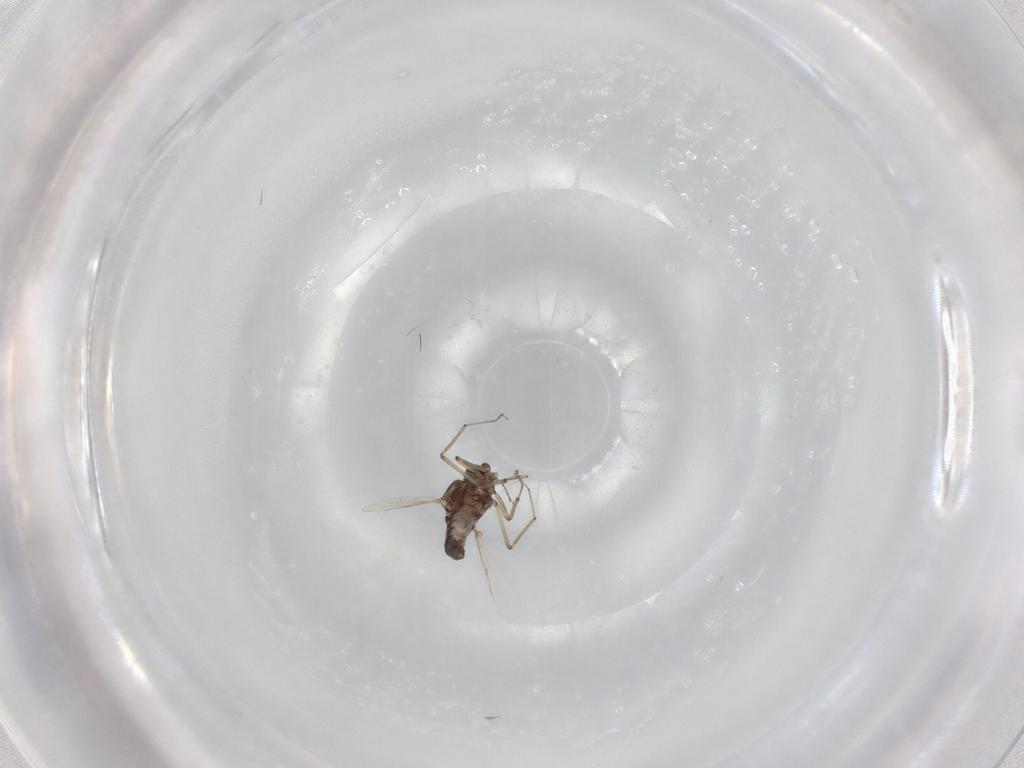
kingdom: Animalia
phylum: Arthropoda
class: Insecta
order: Diptera
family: Ceratopogonidae
